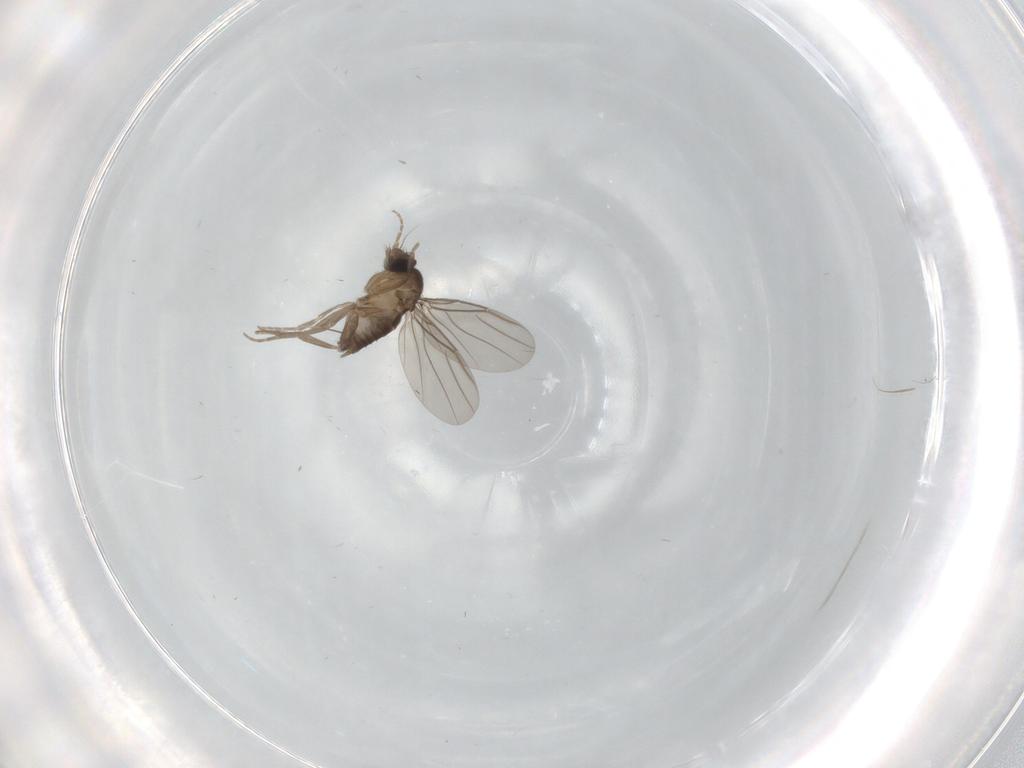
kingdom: Animalia
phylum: Arthropoda
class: Insecta
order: Diptera
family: Phoridae
